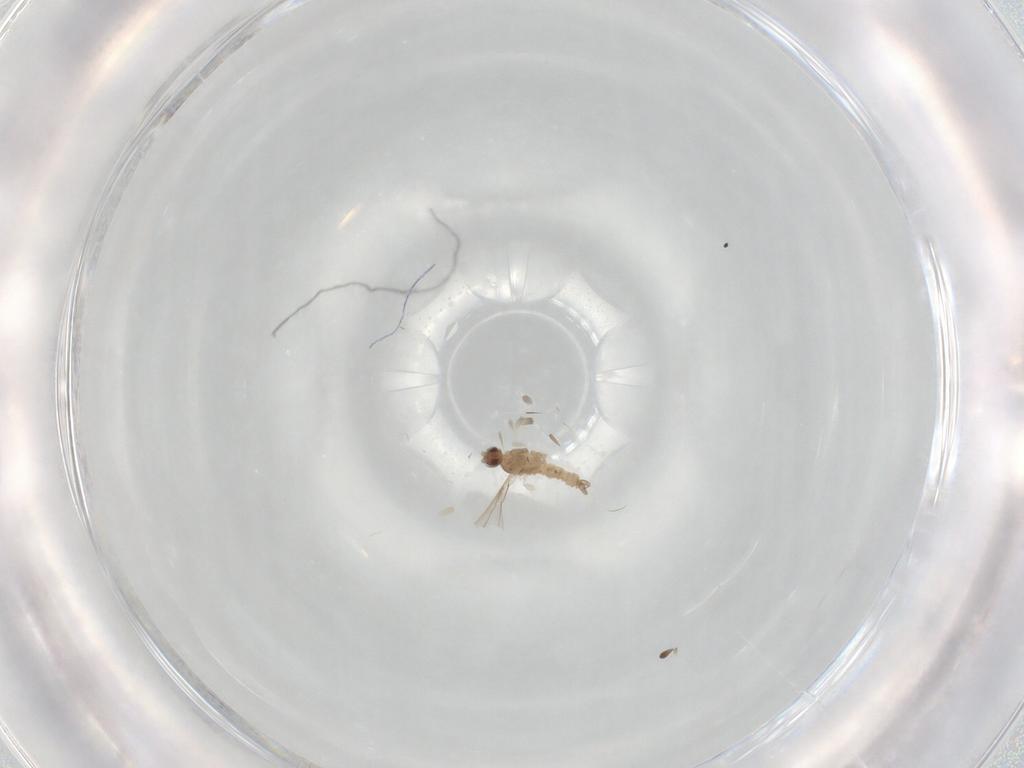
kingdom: Animalia
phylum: Arthropoda
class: Insecta
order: Diptera
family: Cecidomyiidae
